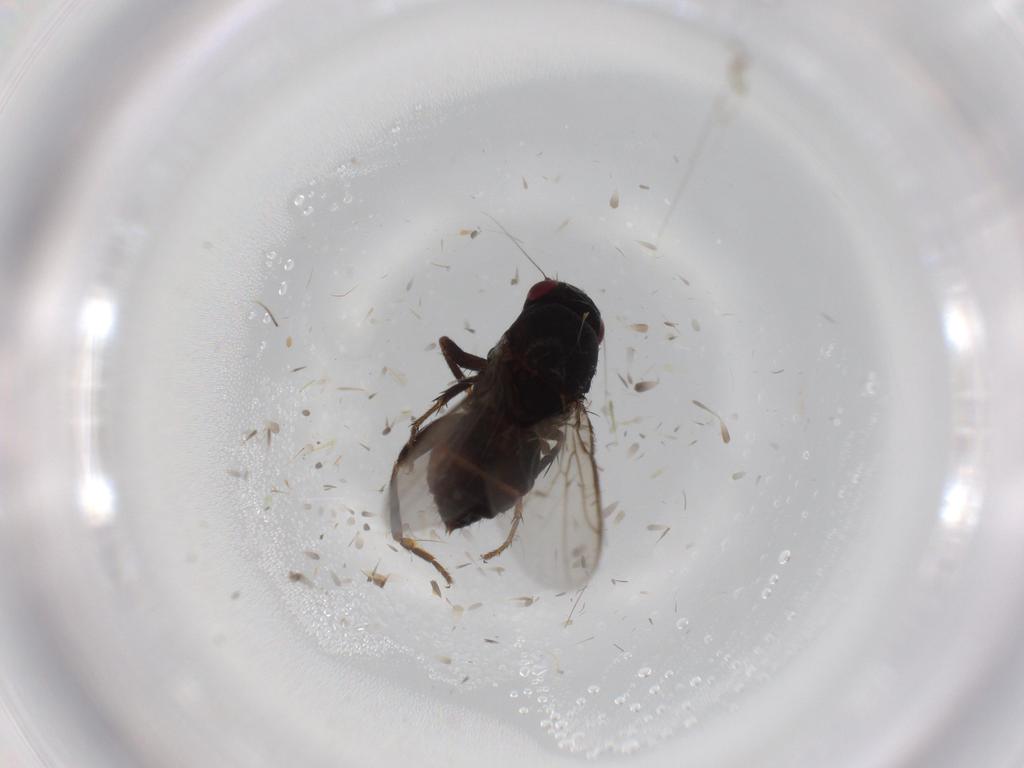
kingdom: Animalia
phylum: Arthropoda
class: Insecta
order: Diptera
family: Sphaeroceridae
